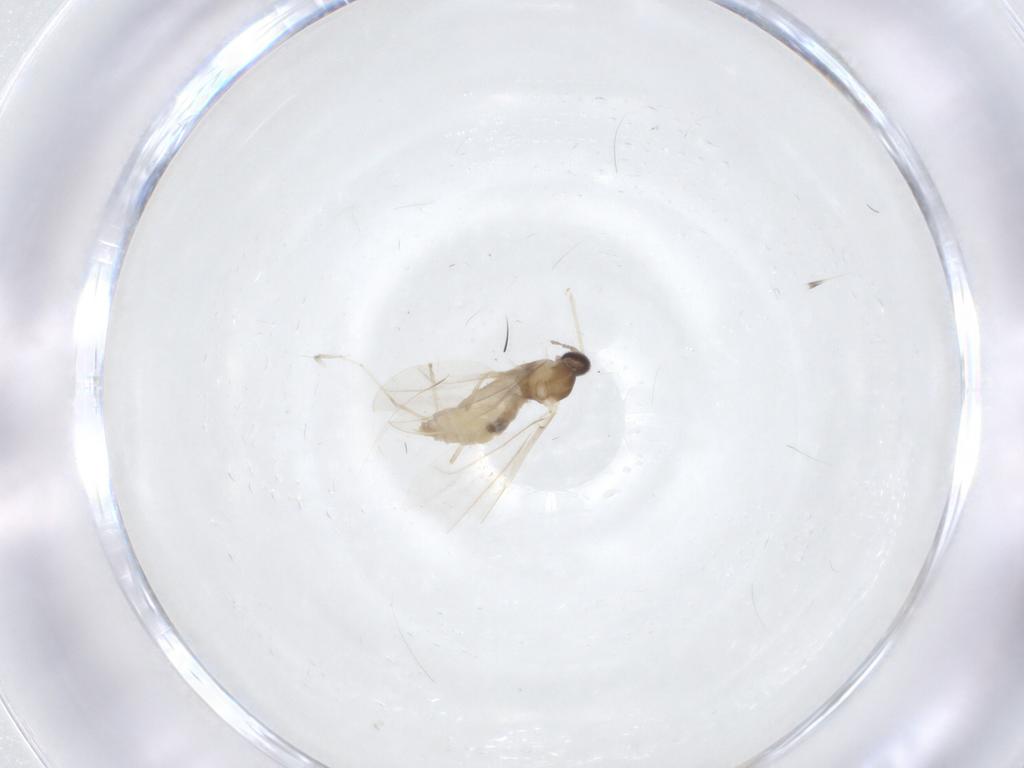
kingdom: Animalia
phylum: Arthropoda
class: Insecta
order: Diptera
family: Cecidomyiidae
